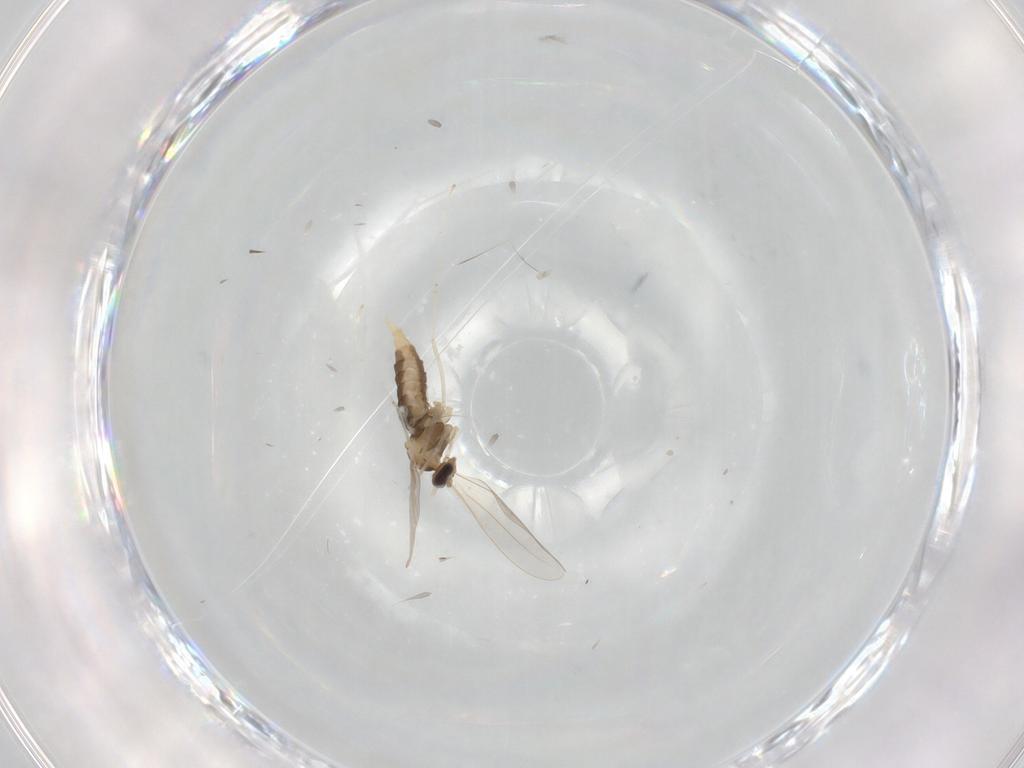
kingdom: Animalia
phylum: Arthropoda
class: Insecta
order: Diptera
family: Cecidomyiidae
